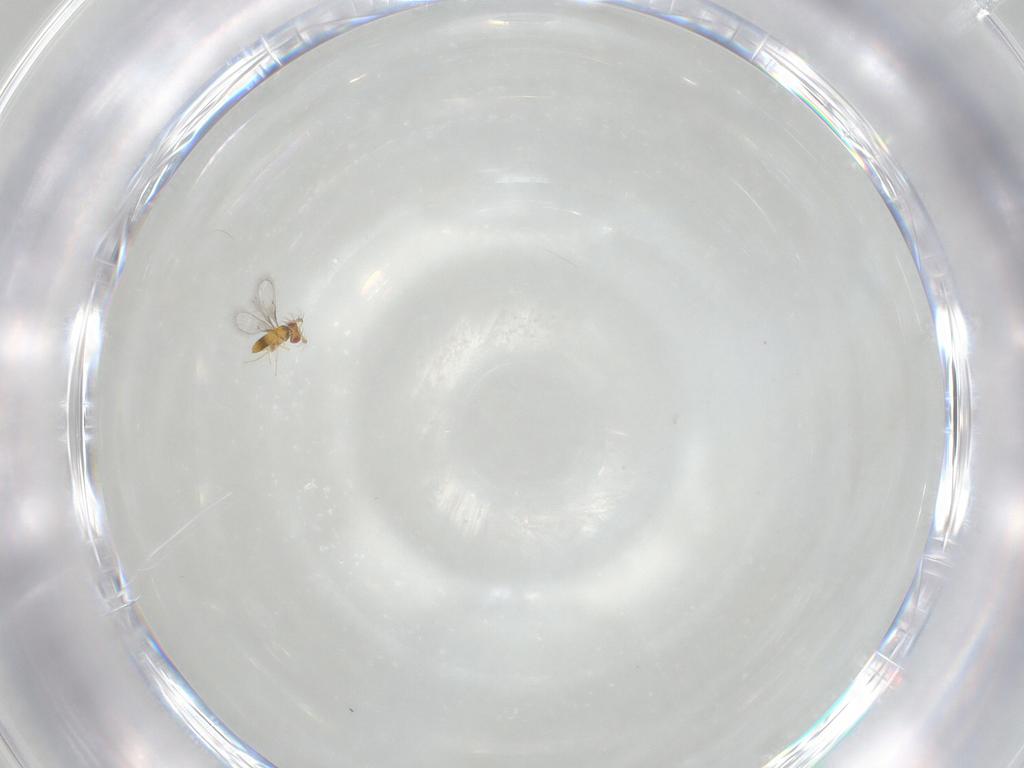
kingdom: Animalia
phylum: Arthropoda
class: Insecta
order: Hymenoptera
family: Trichogrammatidae
